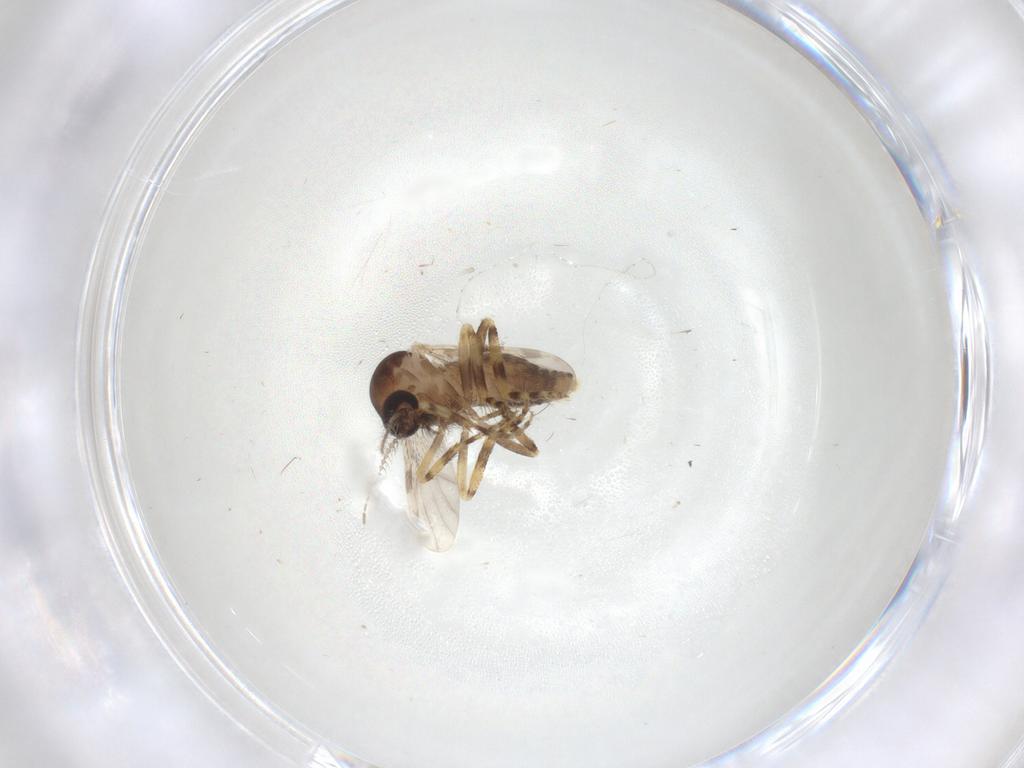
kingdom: Animalia
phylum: Arthropoda
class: Insecta
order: Diptera
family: Ceratopogonidae
